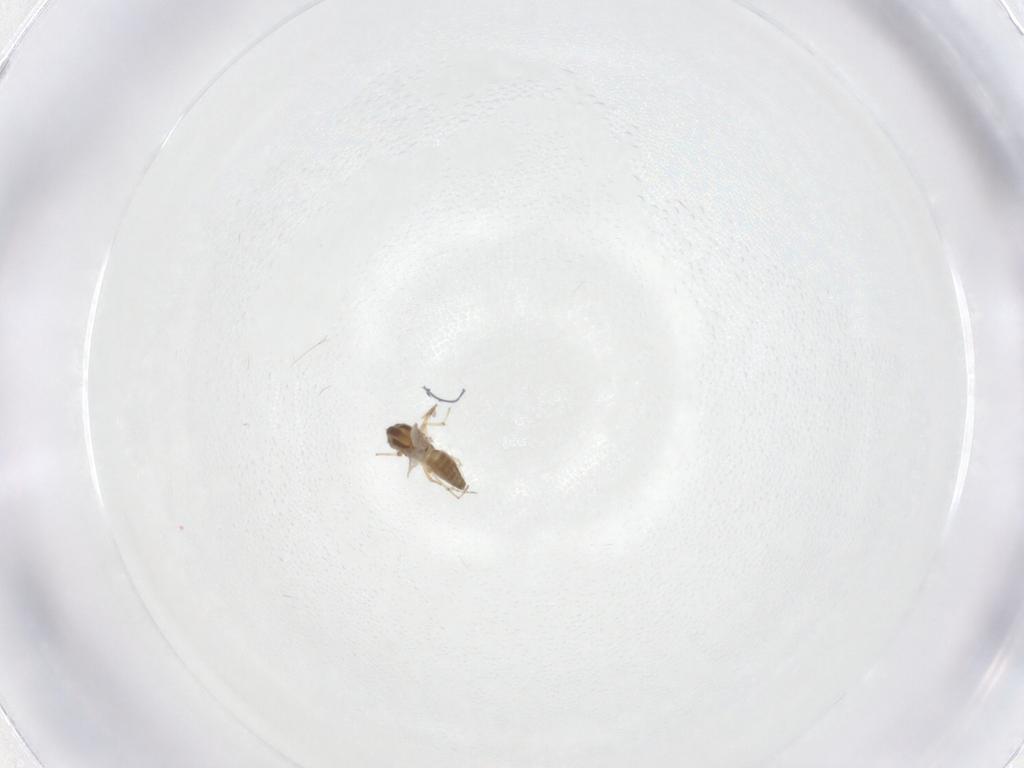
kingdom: Animalia
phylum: Arthropoda
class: Insecta
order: Diptera
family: Chironomidae
